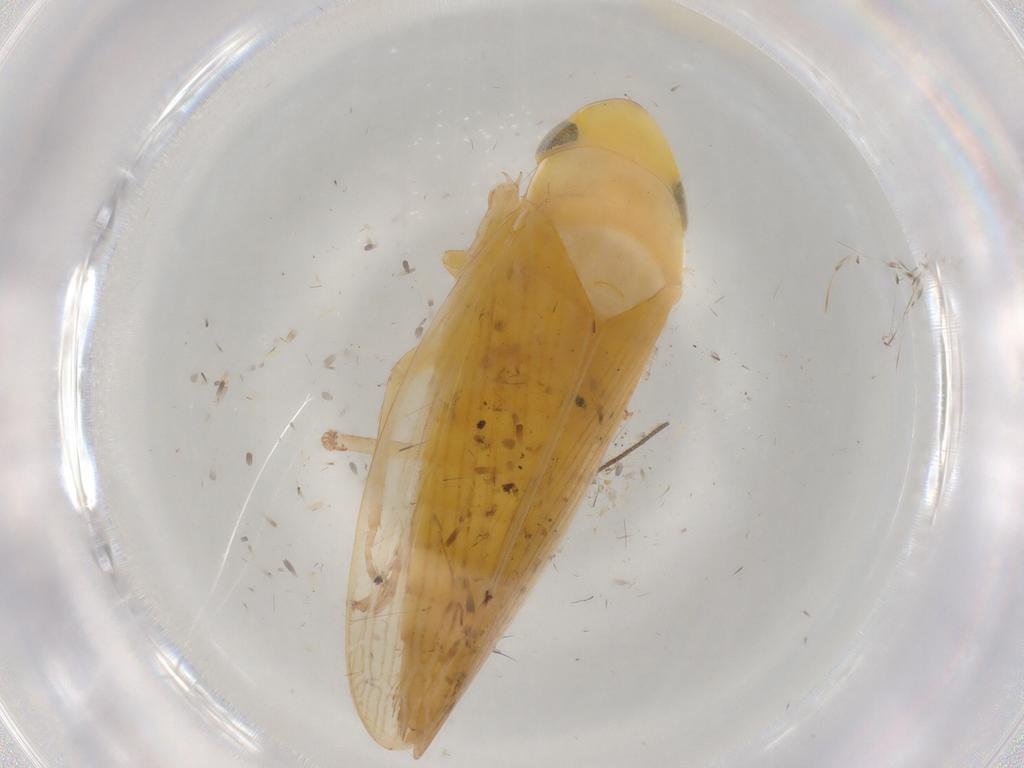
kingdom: Animalia
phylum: Arthropoda
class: Insecta
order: Hemiptera
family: Cicadellidae
